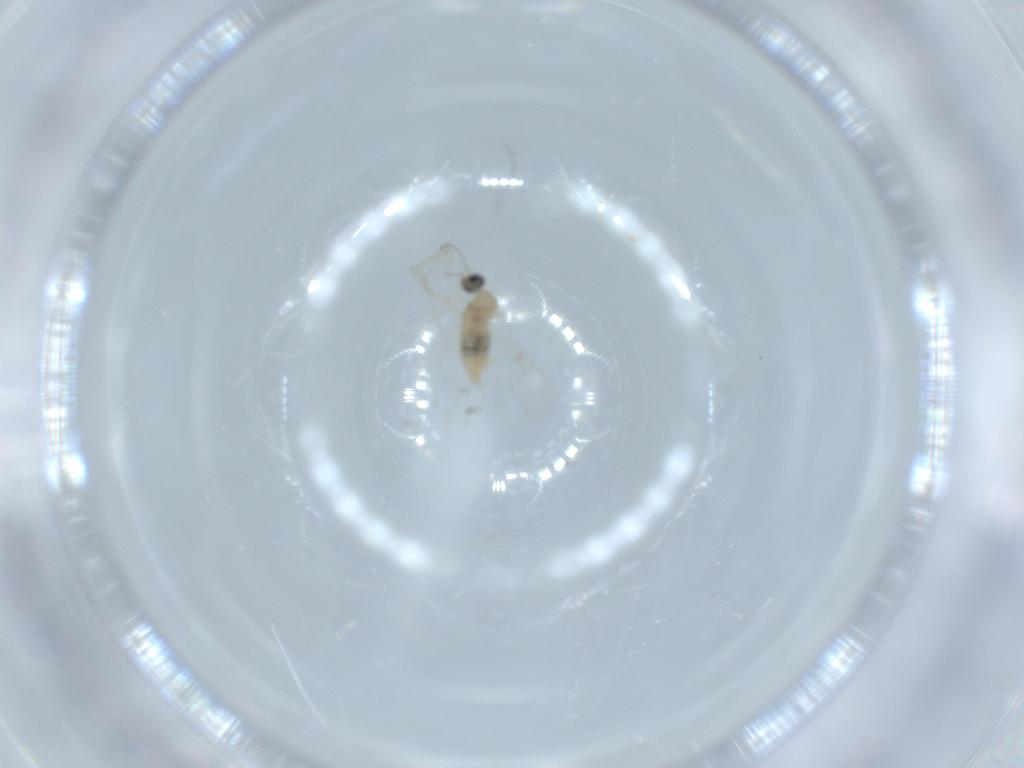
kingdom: Animalia
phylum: Arthropoda
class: Insecta
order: Diptera
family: Cecidomyiidae
